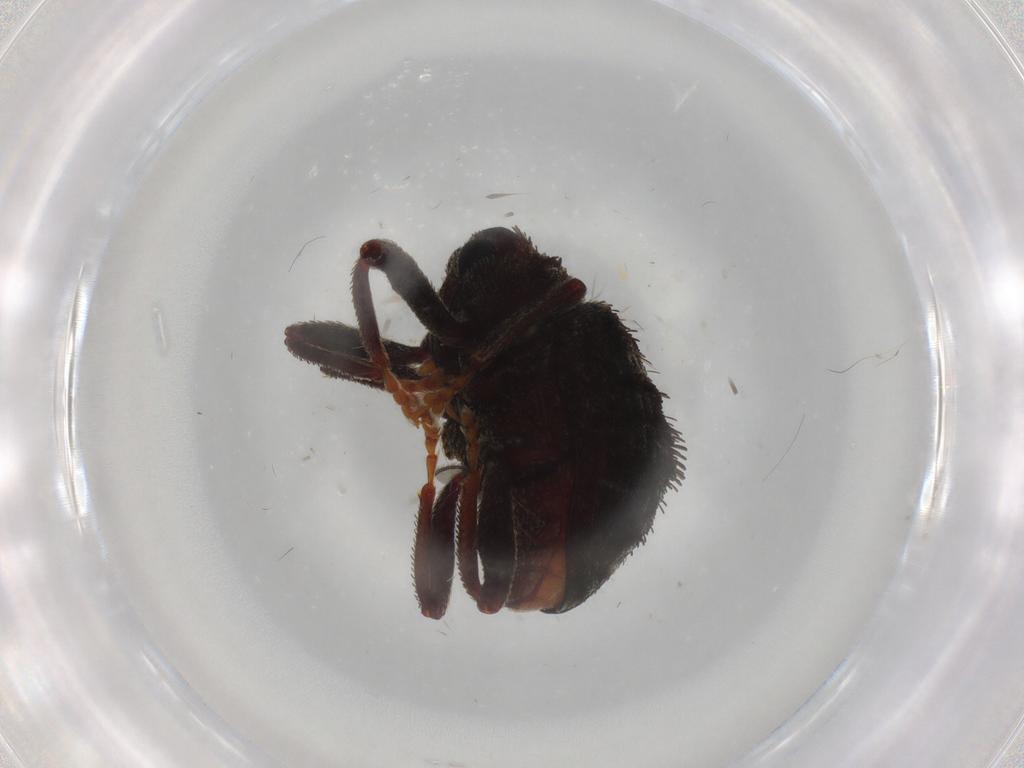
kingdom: Animalia
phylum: Arthropoda
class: Insecta
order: Coleoptera
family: Curculionidae
